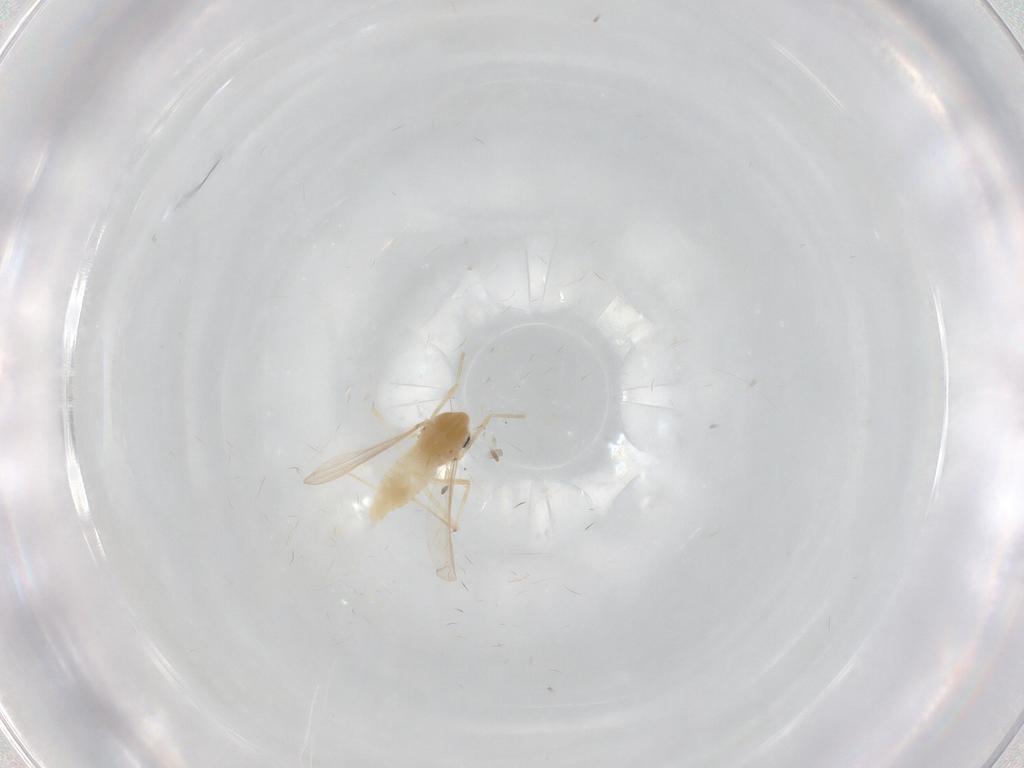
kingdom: Animalia
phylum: Arthropoda
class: Insecta
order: Diptera
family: Chironomidae
